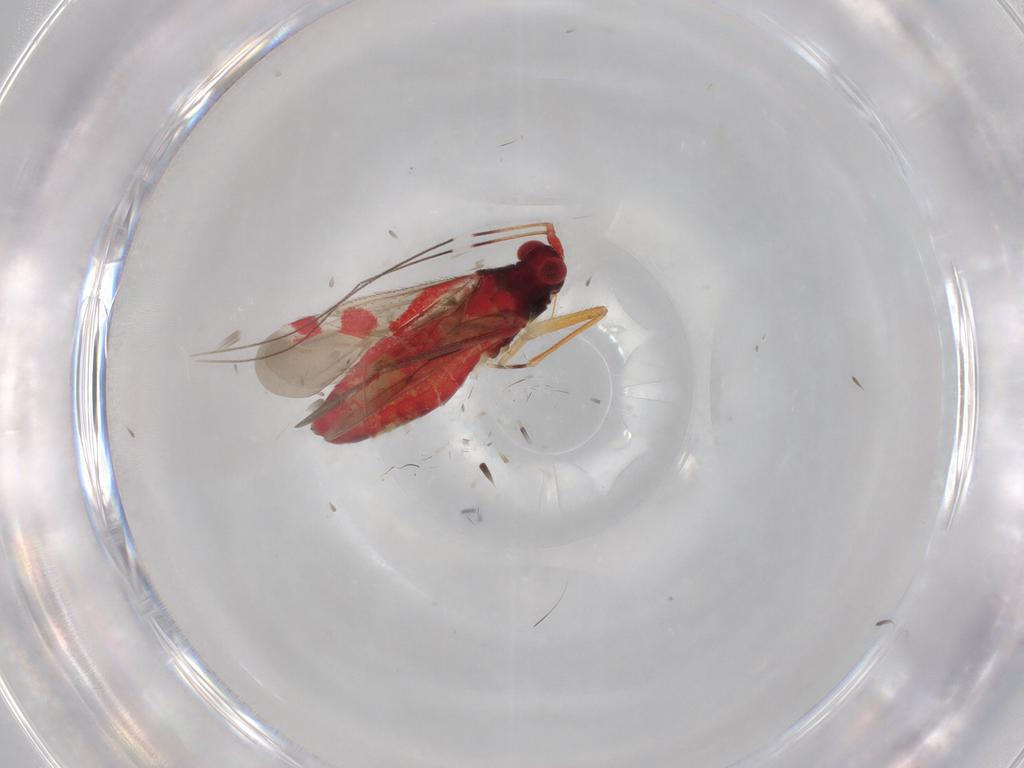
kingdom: Animalia
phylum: Arthropoda
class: Insecta
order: Hemiptera
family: Miridae
